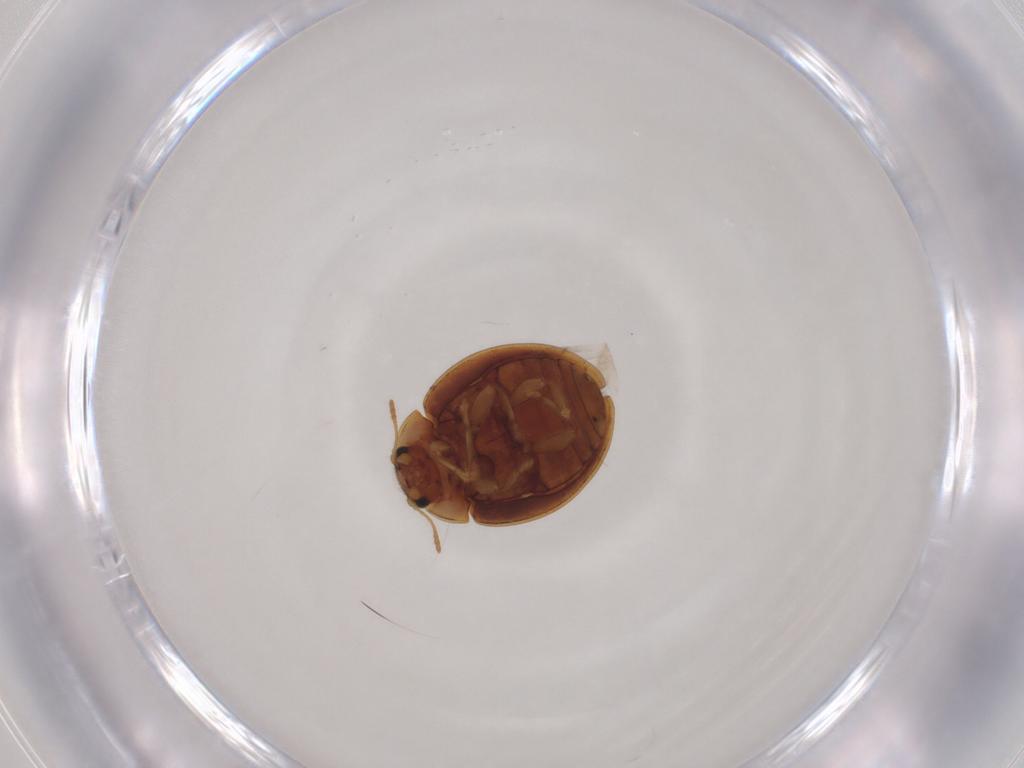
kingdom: Animalia
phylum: Arthropoda
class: Insecta
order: Coleoptera
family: Coccinellidae
